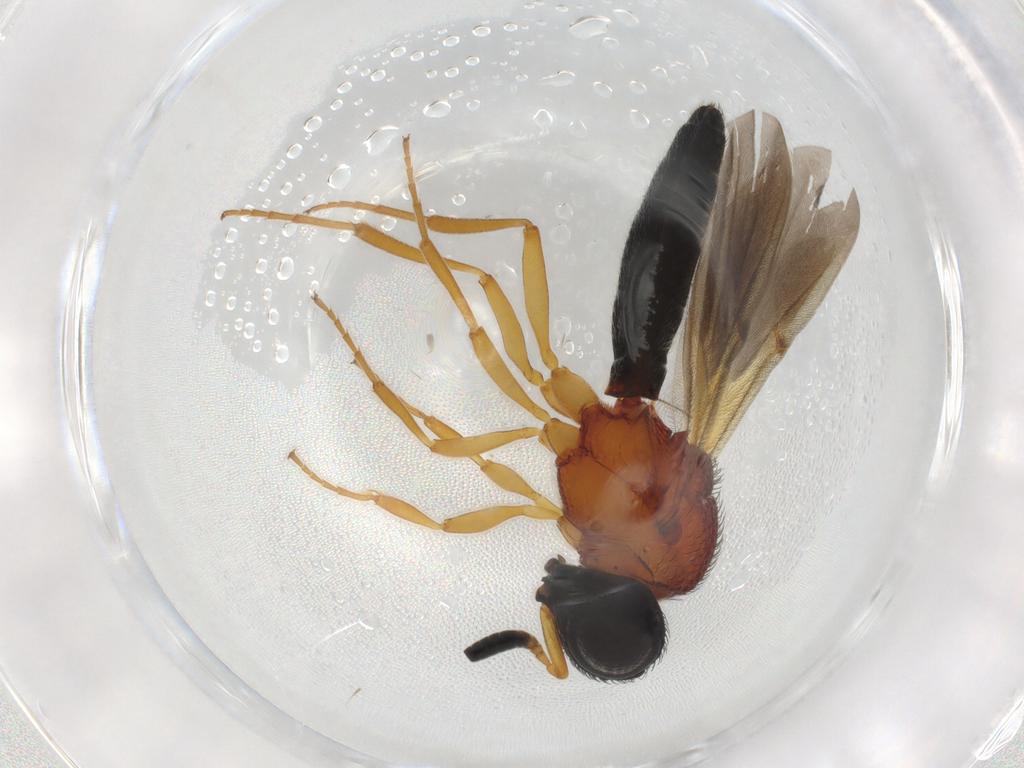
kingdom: Animalia
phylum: Arthropoda
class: Insecta
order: Hymenoptera
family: Scelionidae
